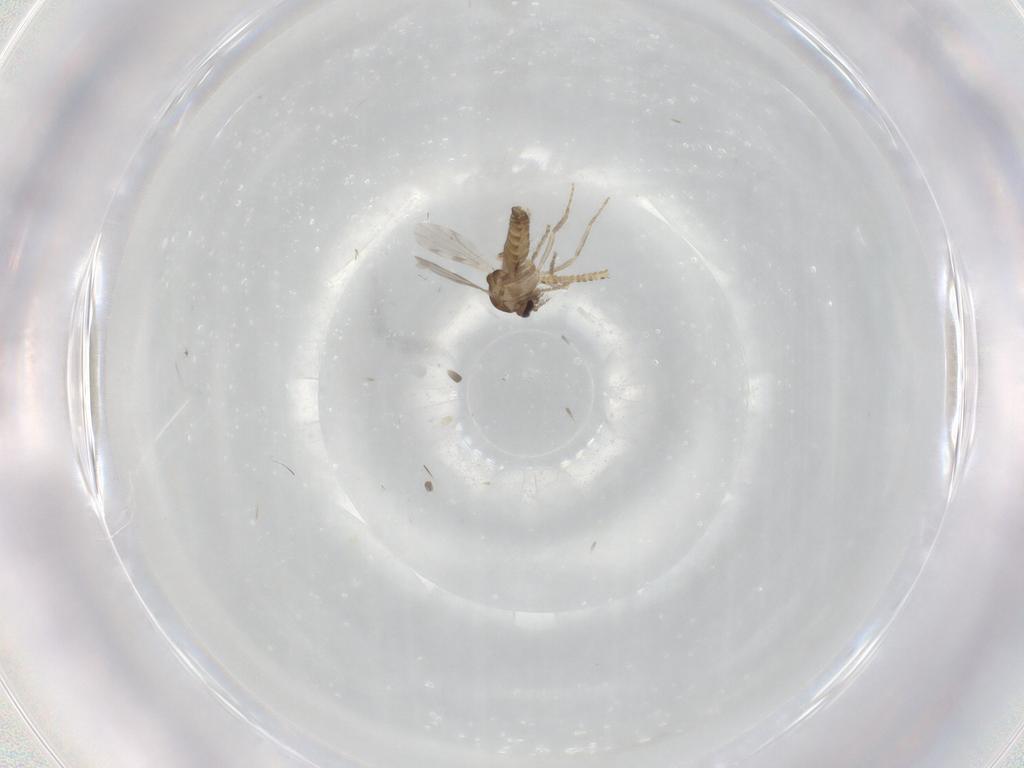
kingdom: Animalia
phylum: Arthropoda
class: Insecta
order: Diptera
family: Ceratopogonidae
